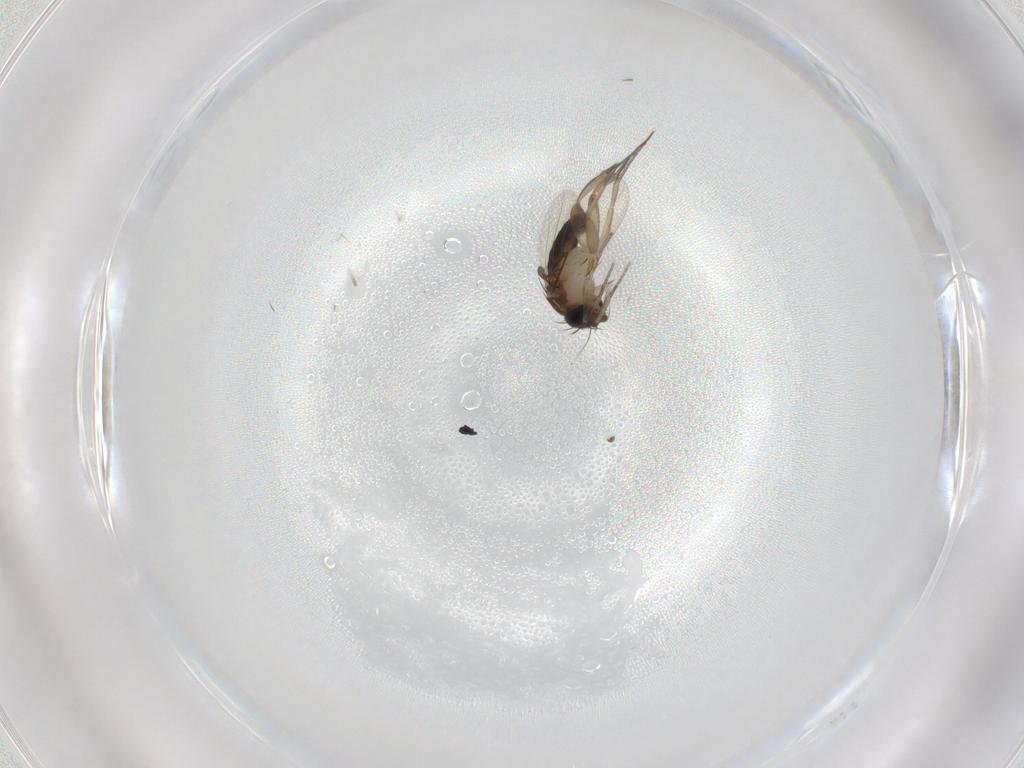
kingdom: Animalia
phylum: Arthropoda
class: Insecta
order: Diptera
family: Phoridae
